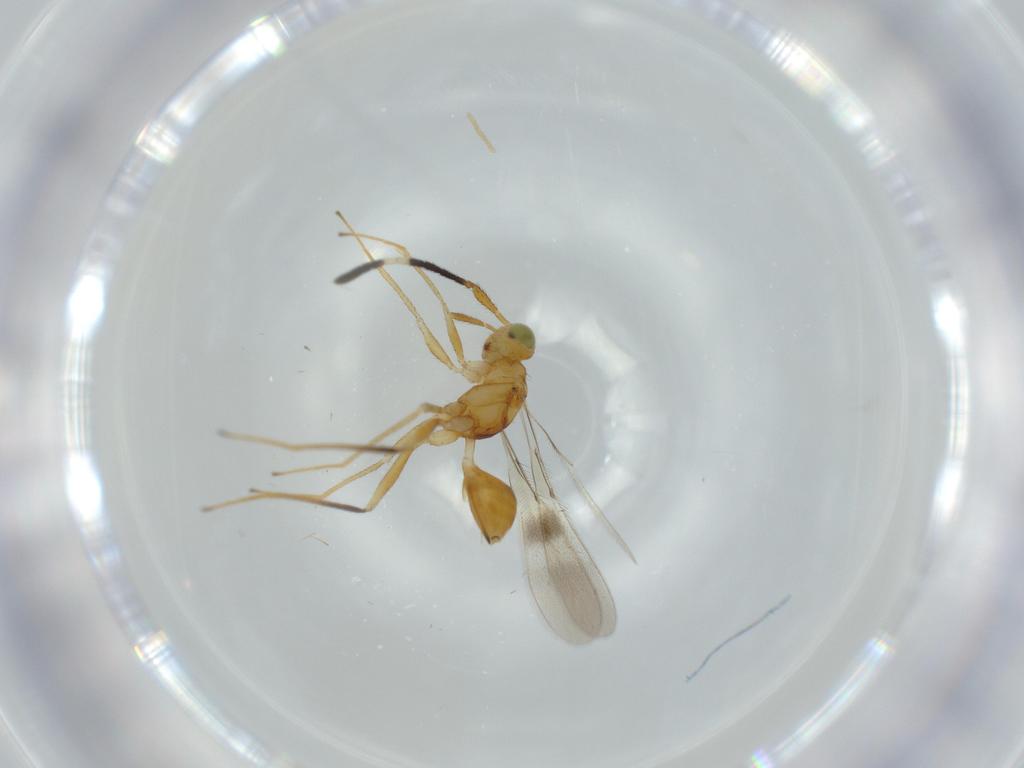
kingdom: Animalia
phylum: Arthropoda
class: Insecta
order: Hymenoptera
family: Mymaridae
